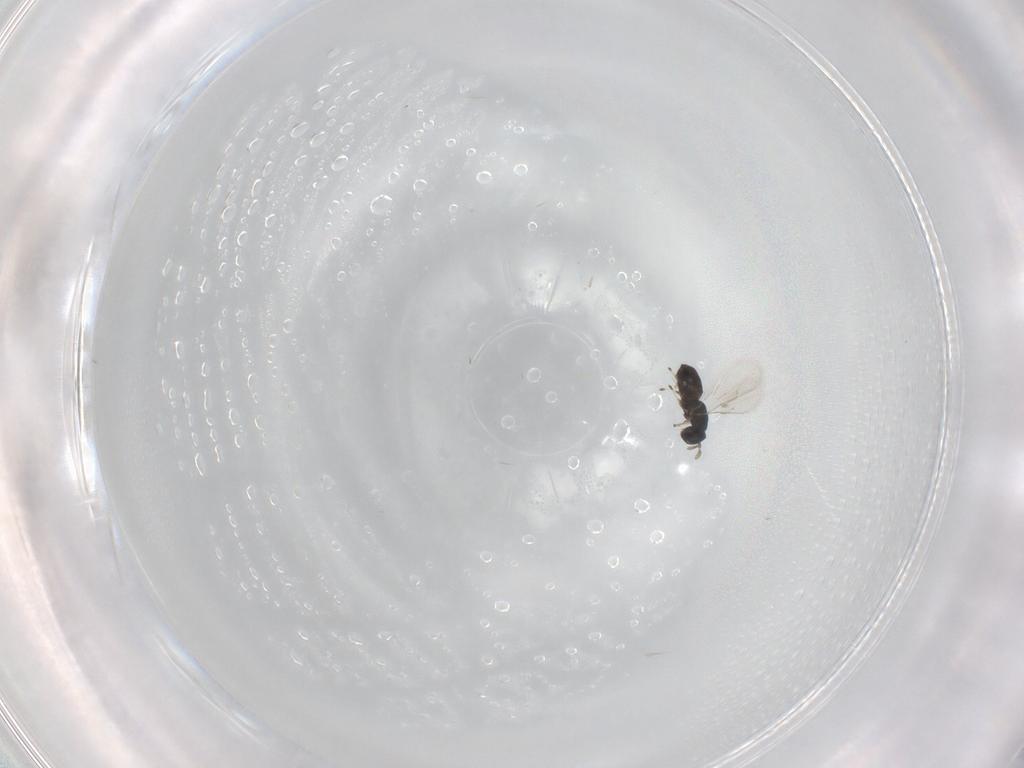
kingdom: Animalia
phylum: Arthropoda
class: Insecta
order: Hymenoptera
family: Eulophidae
